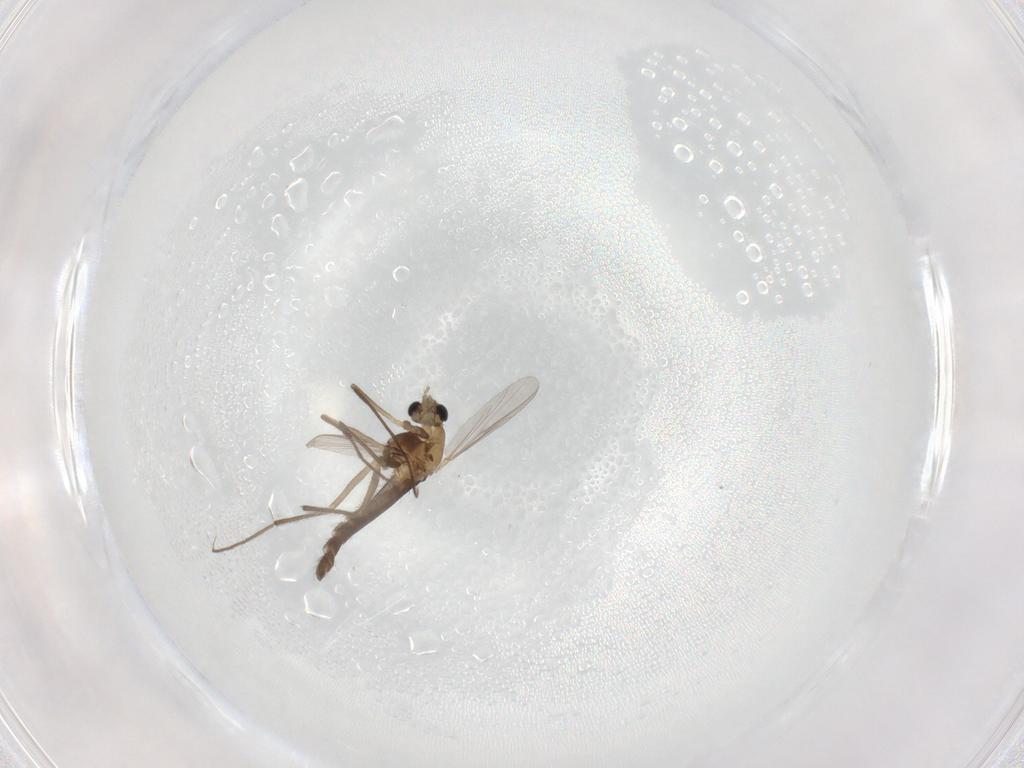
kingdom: Animalia
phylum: Arthropoda
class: Insecta
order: Diptera
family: Chironomidae
